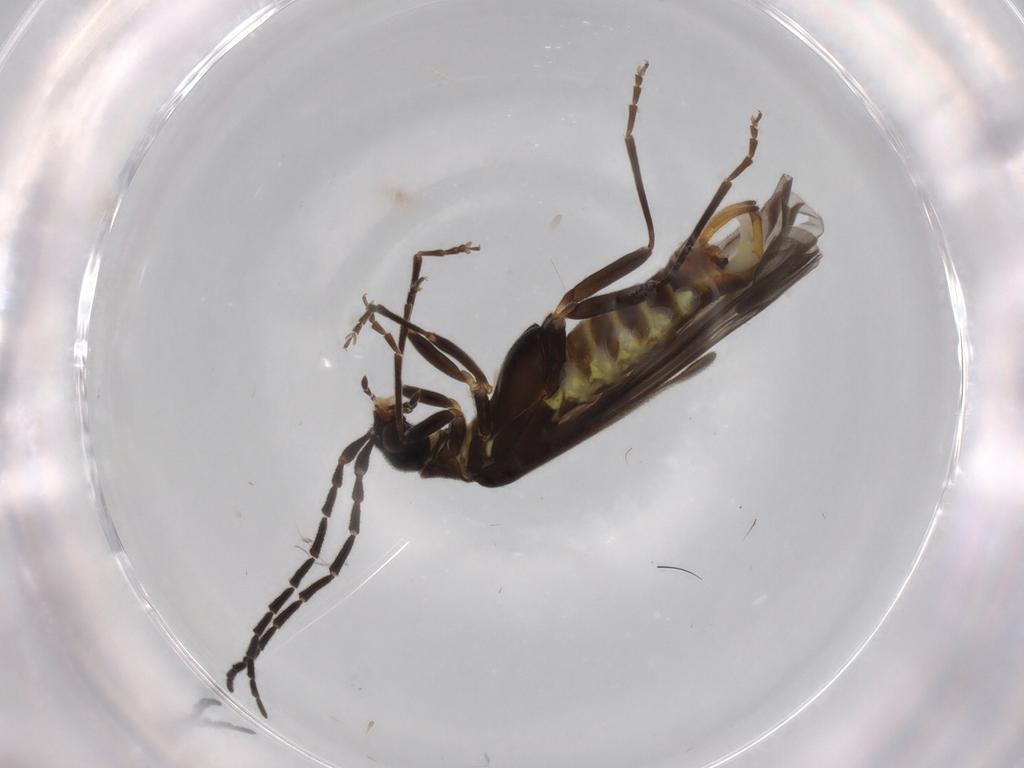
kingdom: Animalia
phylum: Arthropoda
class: Insecta
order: Coleoptera
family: Cantharidae
